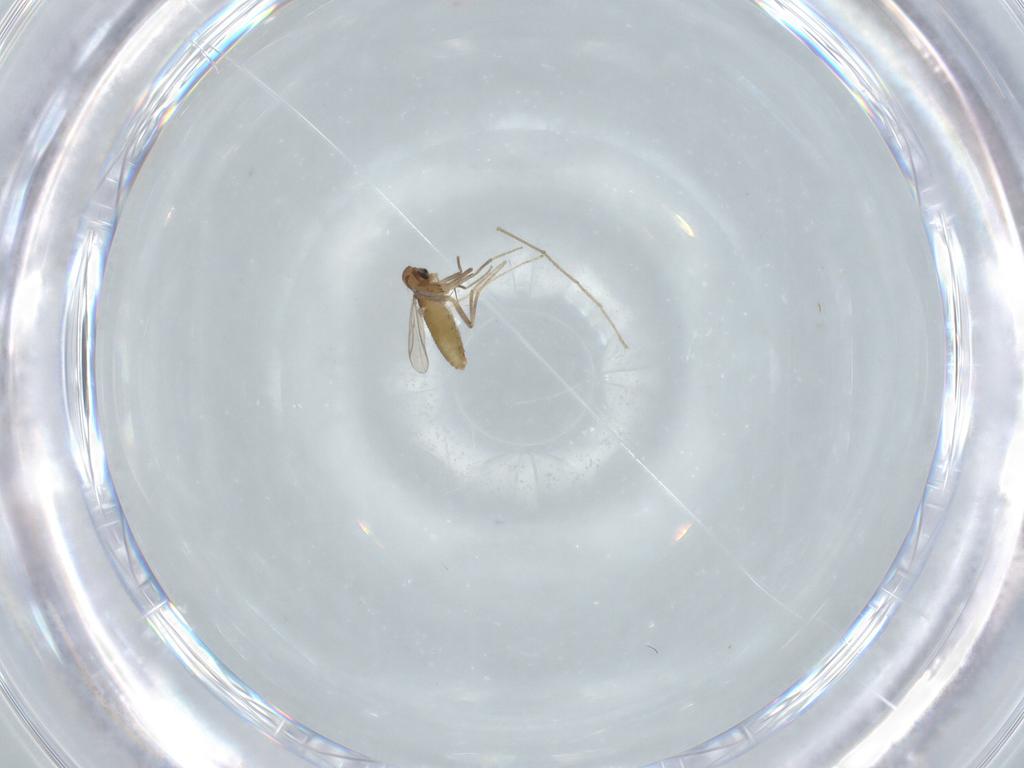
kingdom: Animalia
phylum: Arthropoda
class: Insecta
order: Diptera
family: Chironomidae
